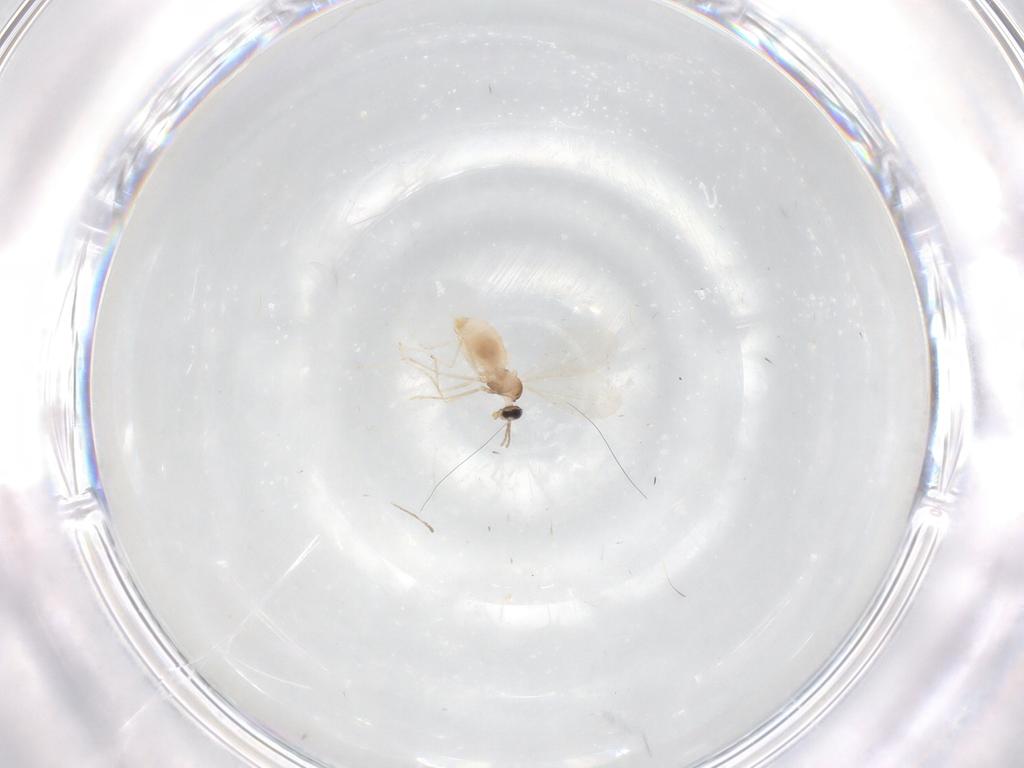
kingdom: Animalia
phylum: Arthropoda
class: Insecta
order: Diptera
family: Cecidomyiidae
